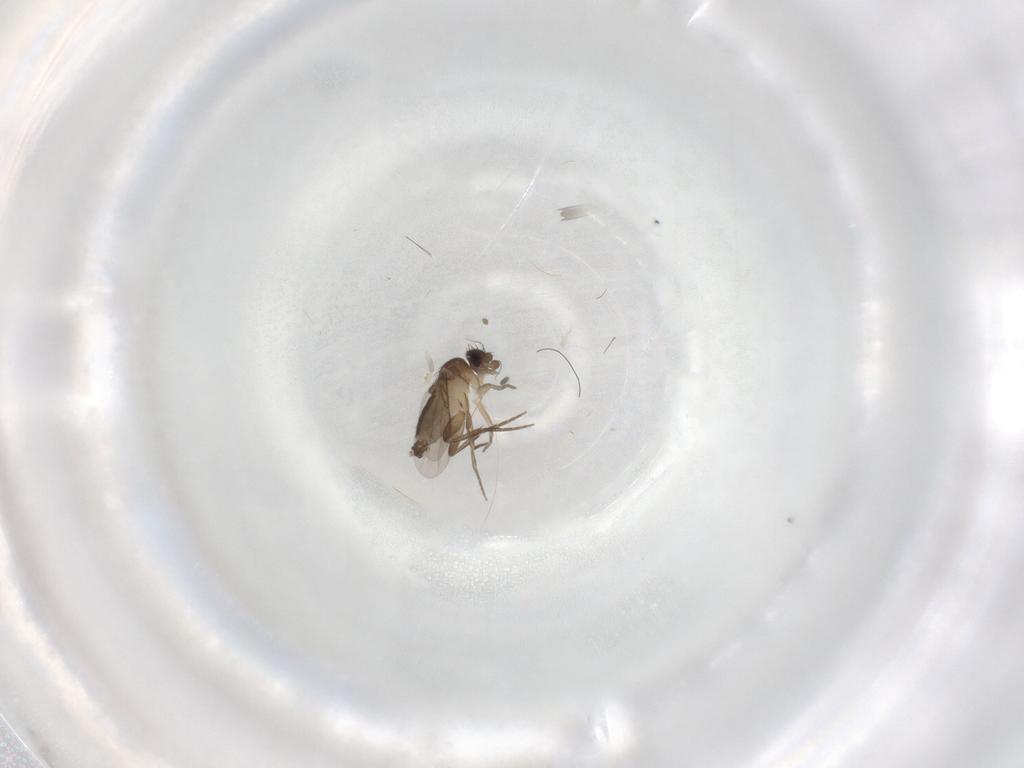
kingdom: Animalia
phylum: Arthropoda
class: Insecta
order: Diptera
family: Phoridae
